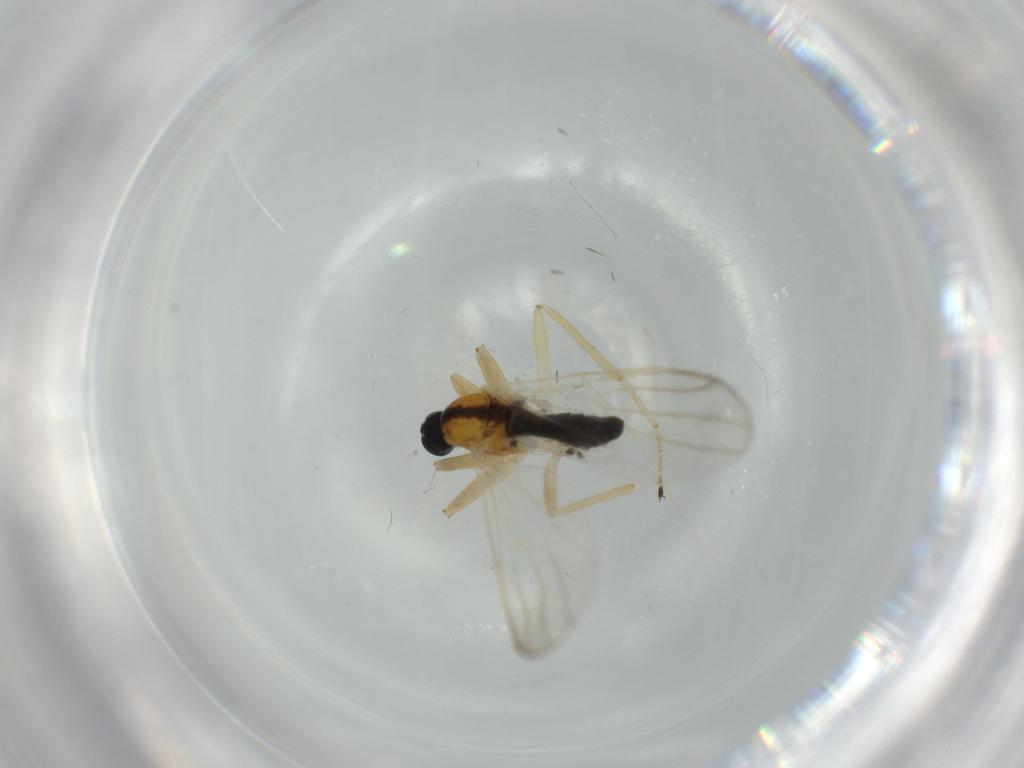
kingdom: Animalia
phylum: Arthropoda
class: Insecta
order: Diptera
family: Hybotidae
